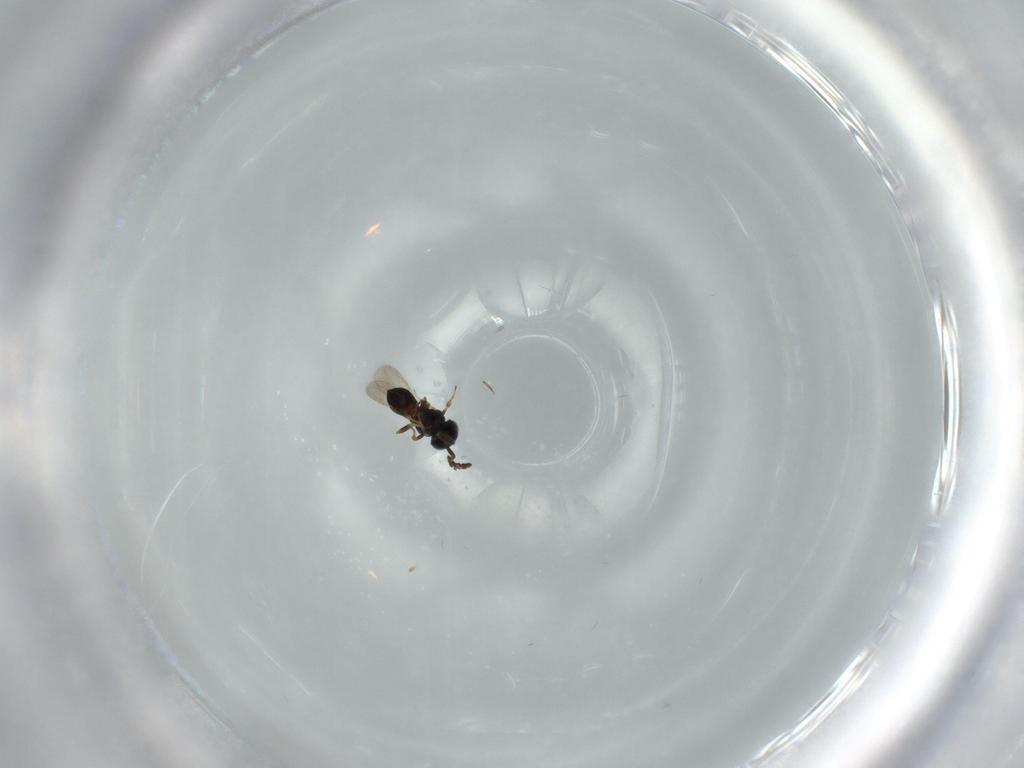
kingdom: Animalia
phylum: Arthropoda
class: Insecta
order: Hymenoptera
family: Scelionidae
